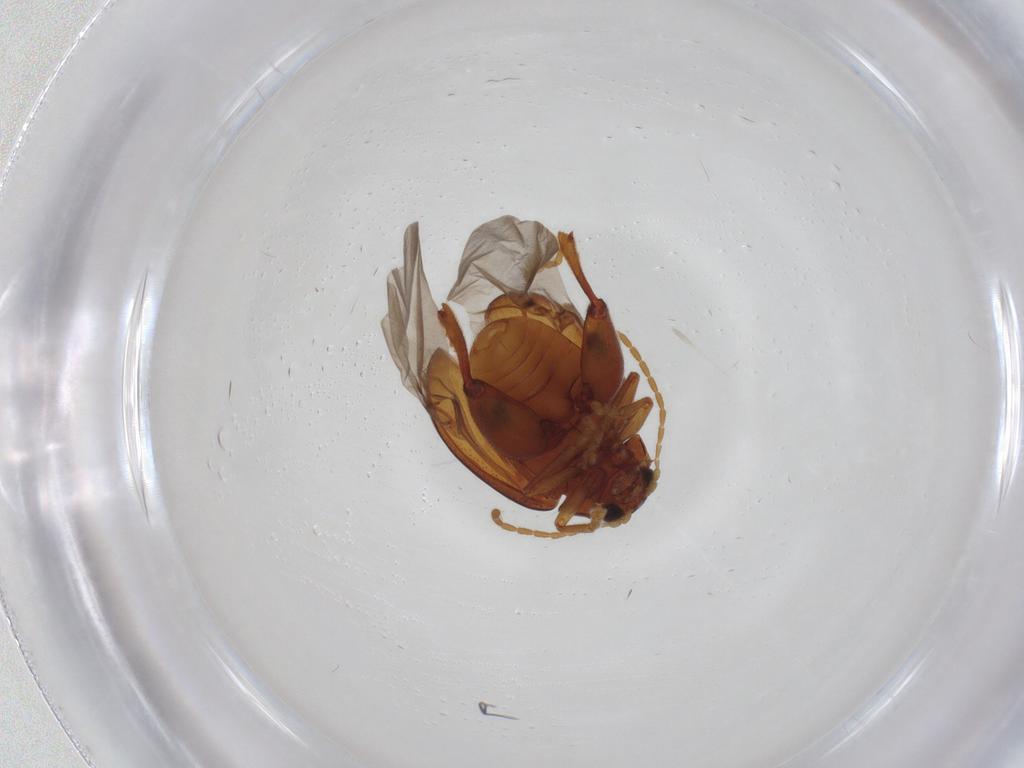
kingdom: Animalia
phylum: Arthropoda
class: Insecta
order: Coleoptera
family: Chrysomelidae
